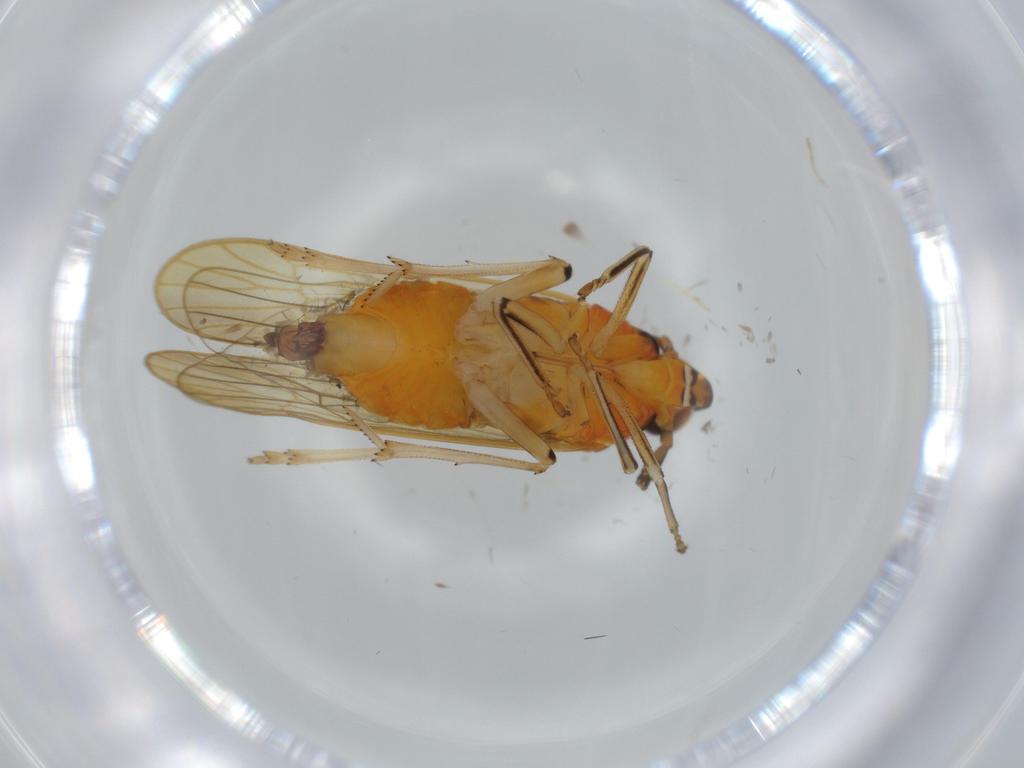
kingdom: Animalia
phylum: Arthropoda
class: Insecta
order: Hemiptera
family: Delphacidae
